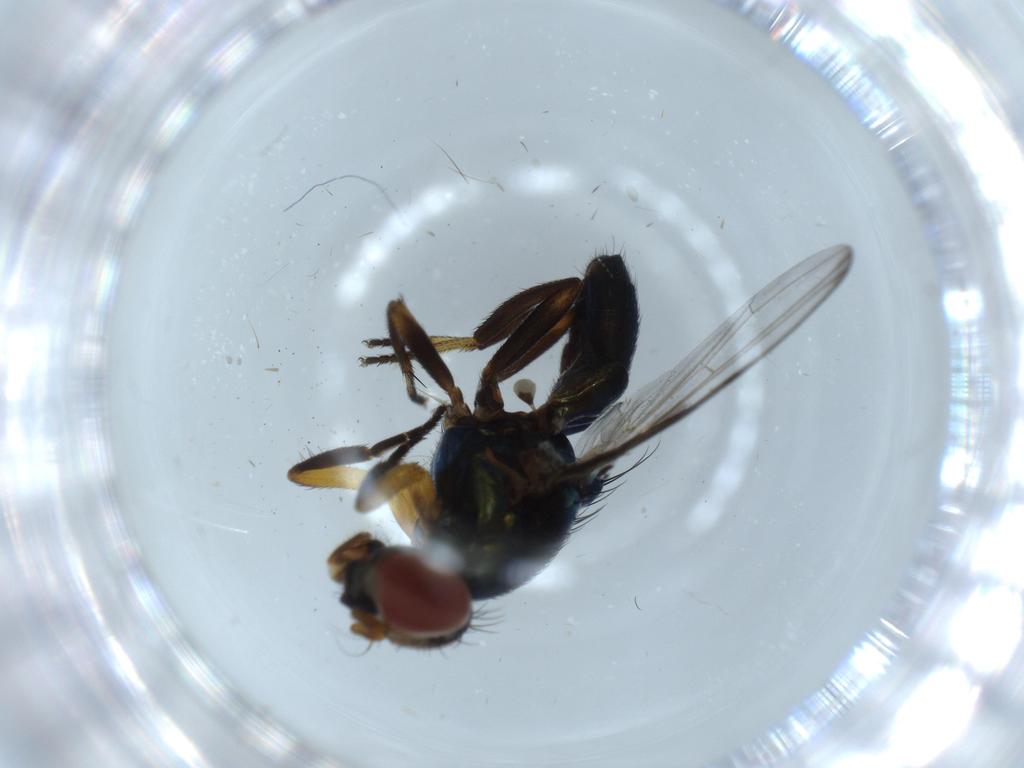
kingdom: Animalia
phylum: Arthropoda
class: Insecta
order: Diptera
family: Ulidiidae
